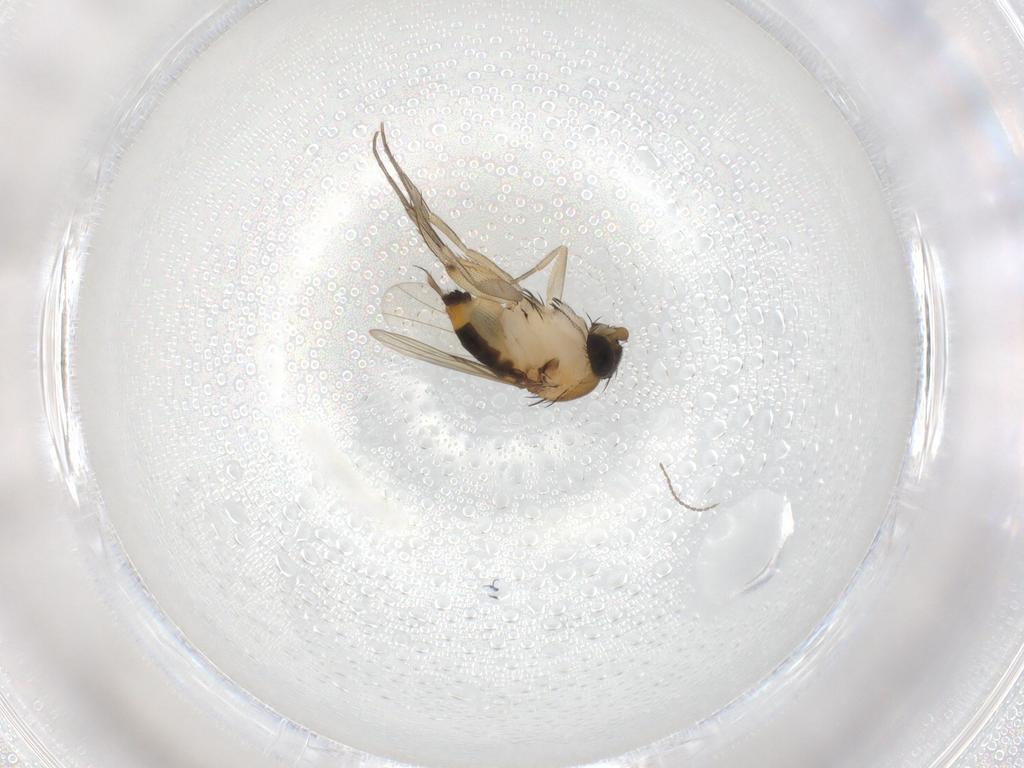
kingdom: Animalia
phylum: Arthropoda
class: Insecta
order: Diptera
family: Phoridae
